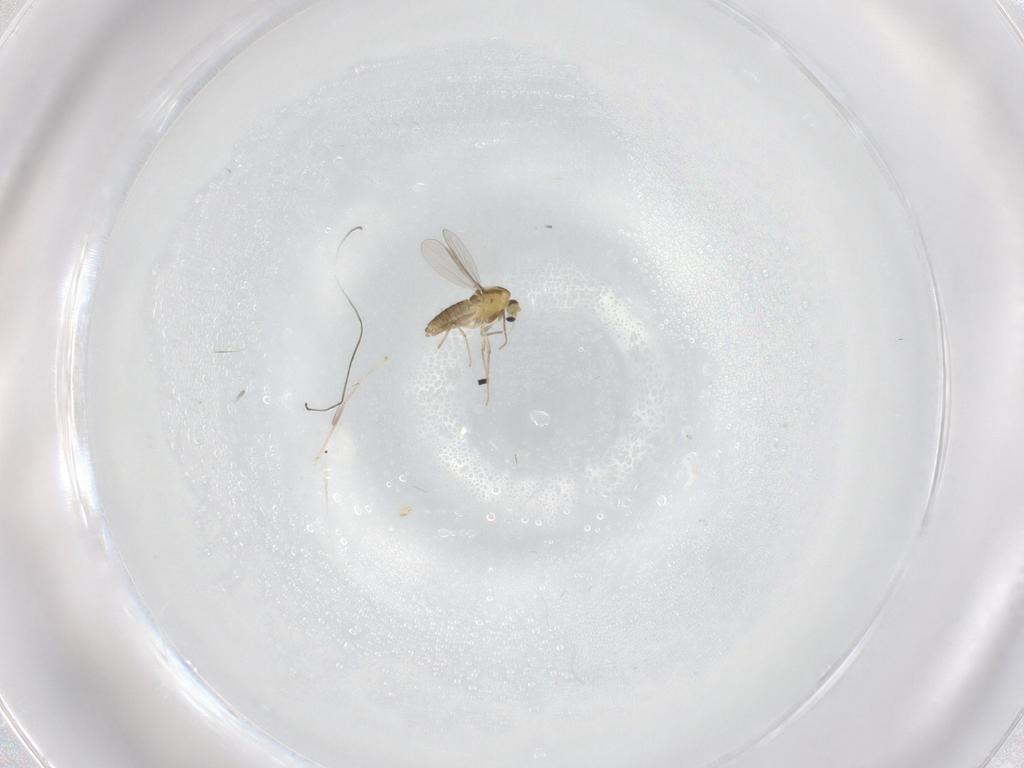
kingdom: Animalia
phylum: Arthropoda
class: Insecta
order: Diptera
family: Chironomidae
